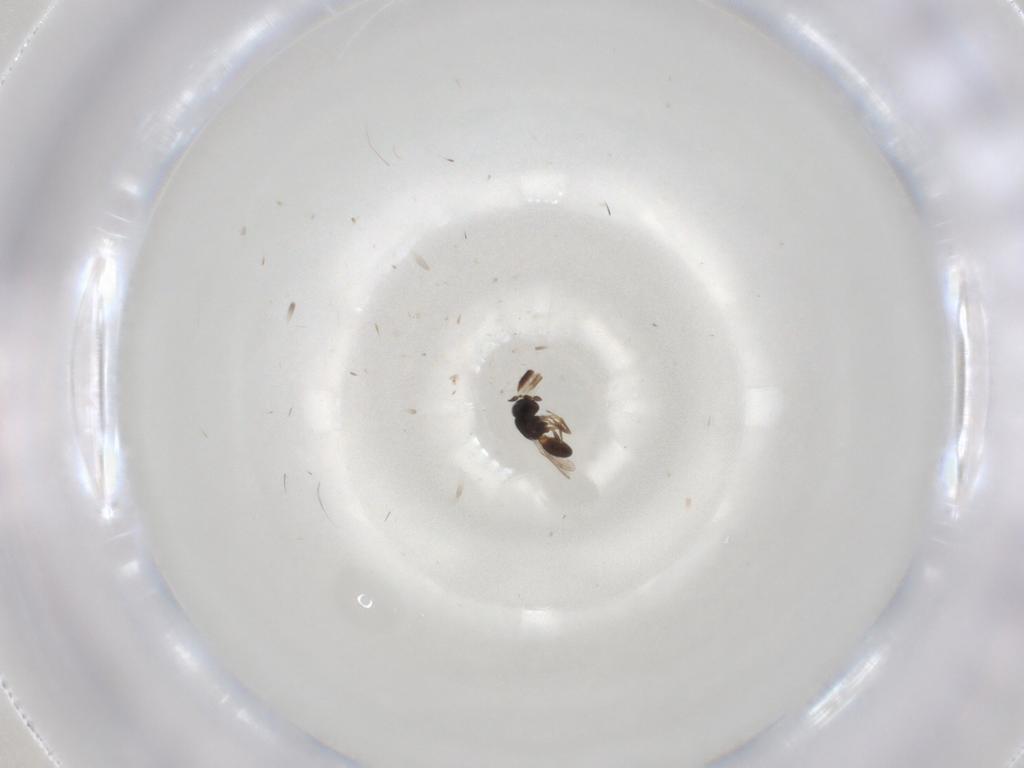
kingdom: Animalia
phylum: Arthropoda
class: Insecta
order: Hymenoptera
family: Scelionidae
